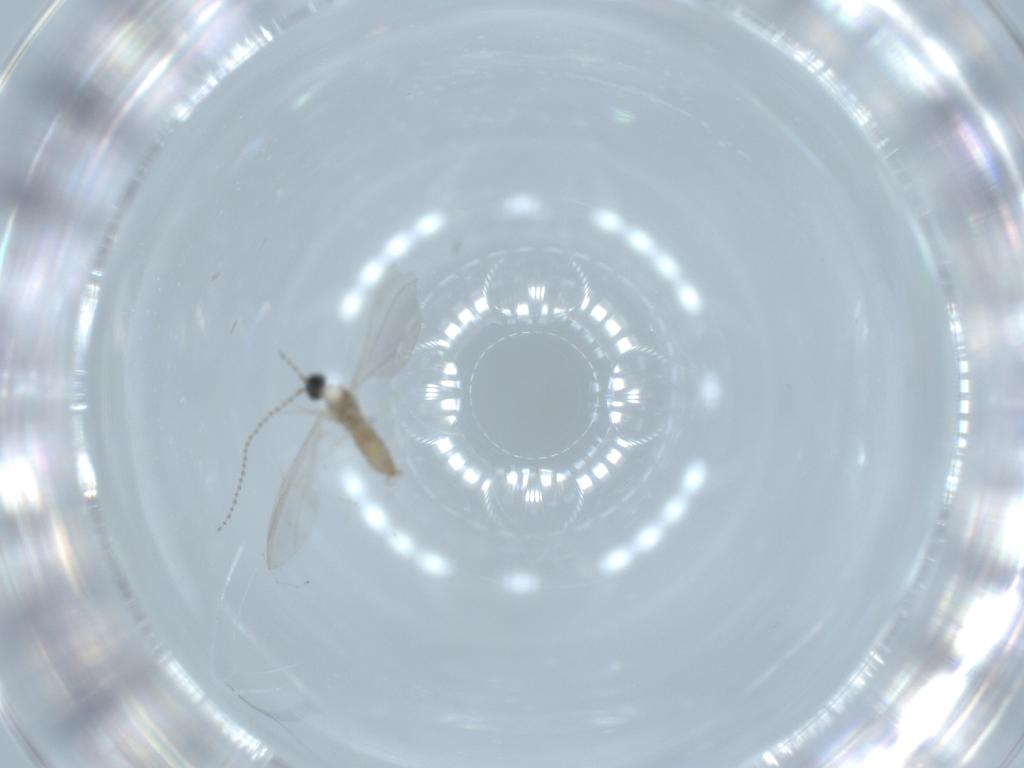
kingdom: Animalia
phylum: Arthropoda
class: Insecta
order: Diptera
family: Cecidomyiidae
